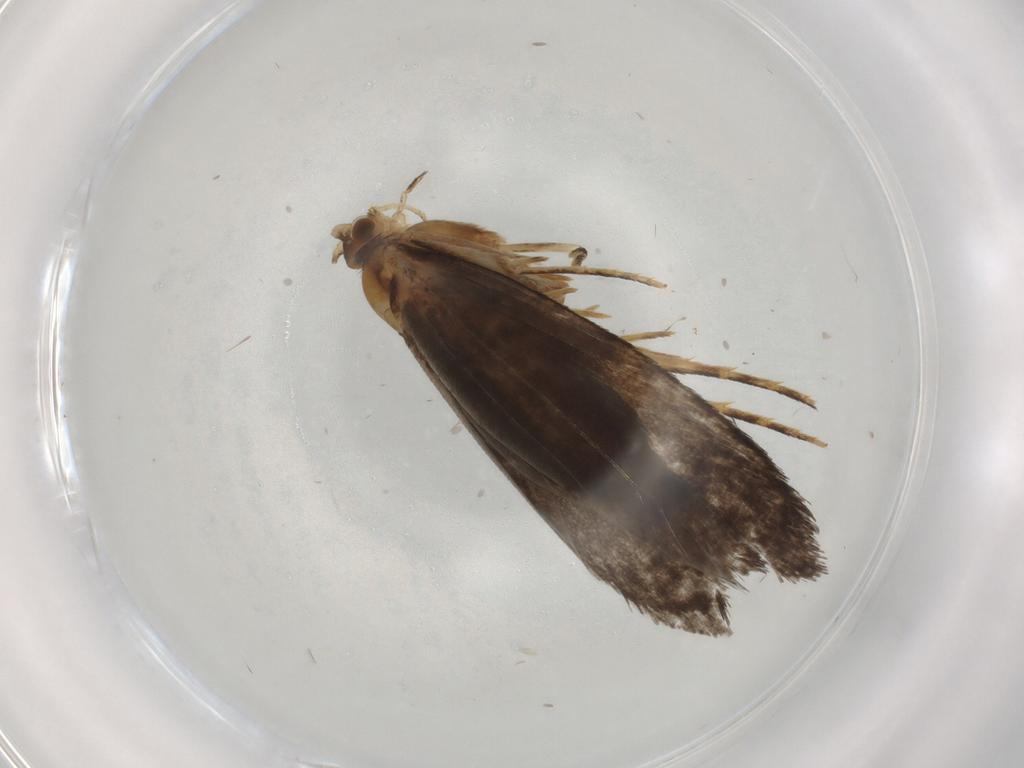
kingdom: Animalia
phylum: Arthropoda
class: Insecta
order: Lepidoptera
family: Tineidae
